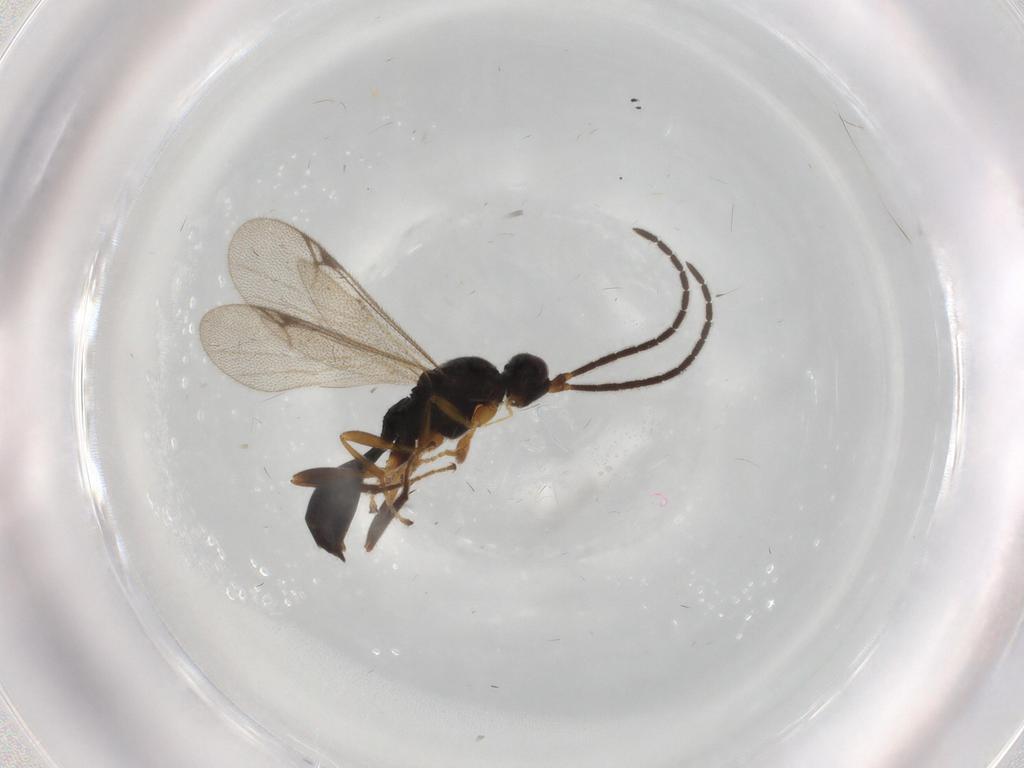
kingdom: Animalia
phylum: Arthropoda
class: Insecta
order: Hymenoptera
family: Proctotrupidae
